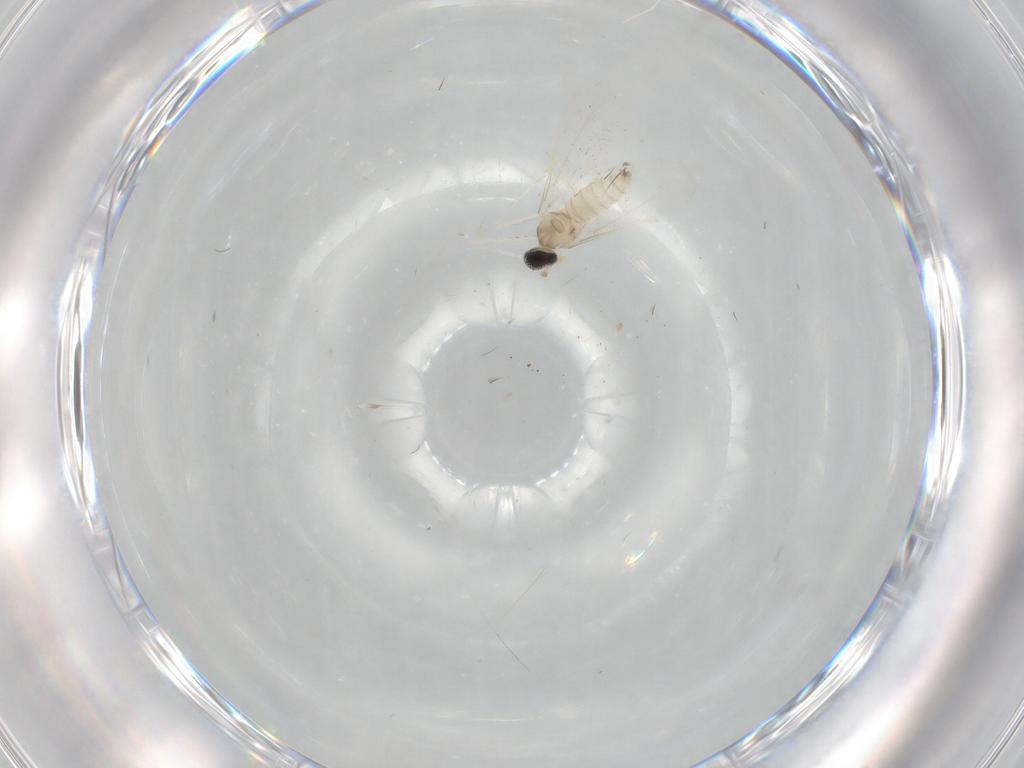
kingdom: Animalia
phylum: Arthropoda
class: Insecta
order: Diptera
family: Cecidomyiidae
